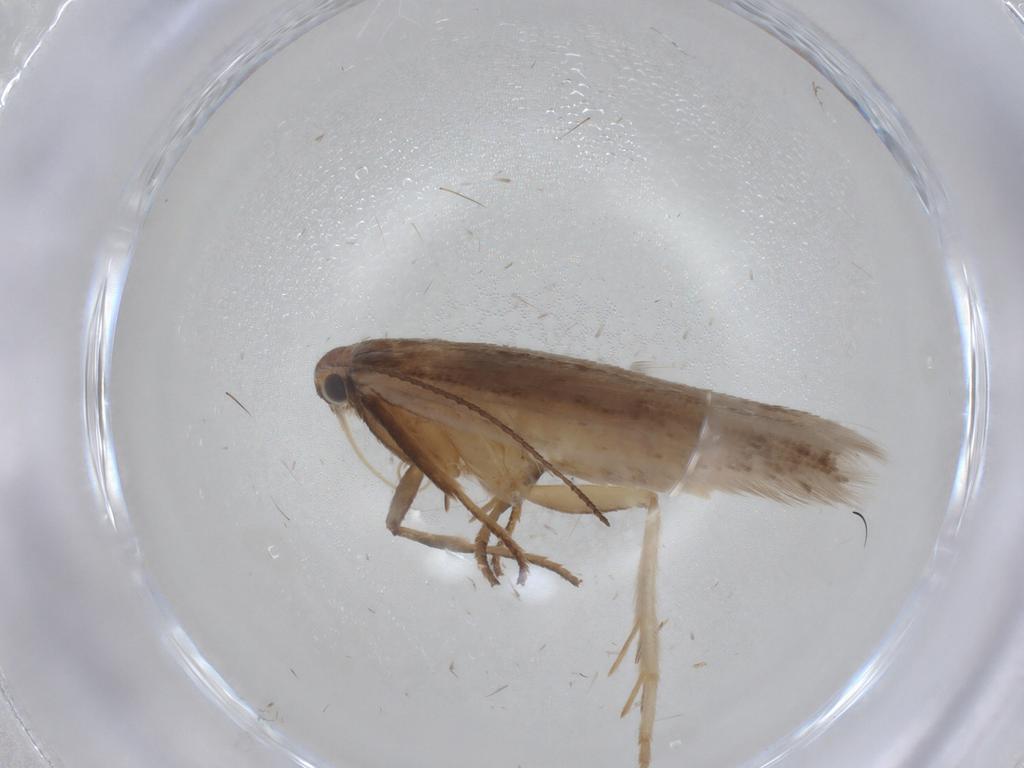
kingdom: Animalia
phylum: Arthropoda
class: Insecta
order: Lepidoptera
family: Gelechiidae
